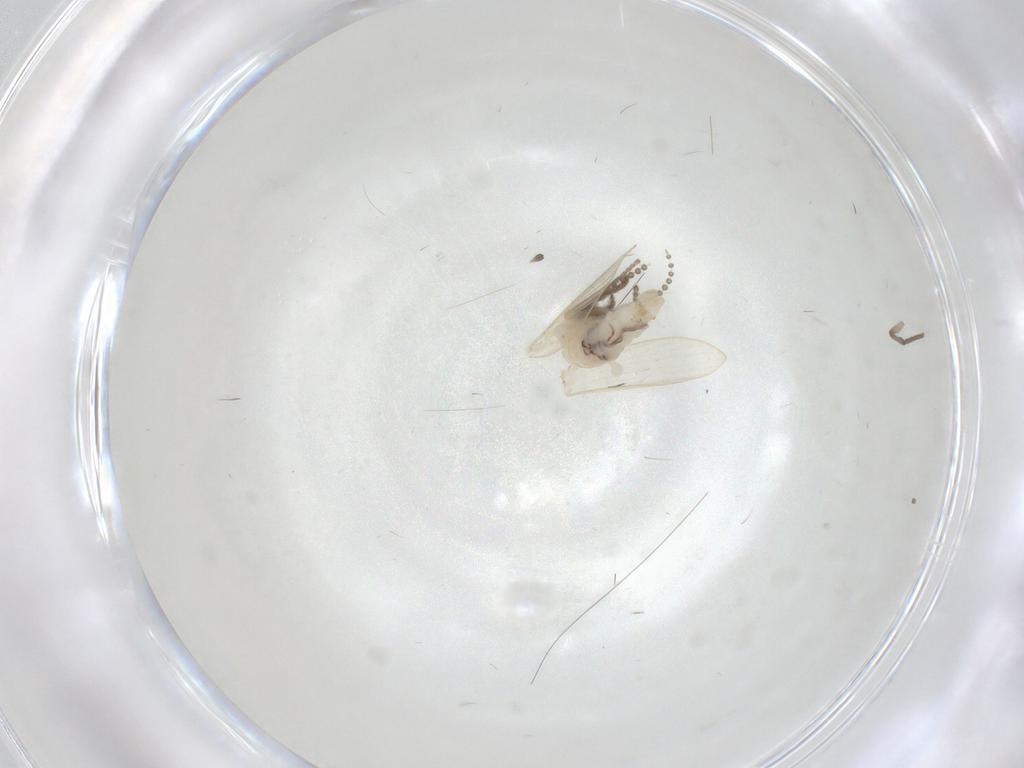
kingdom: Animalia
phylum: Arthropoda
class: Insecta
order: Diptera
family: Psychodidae
